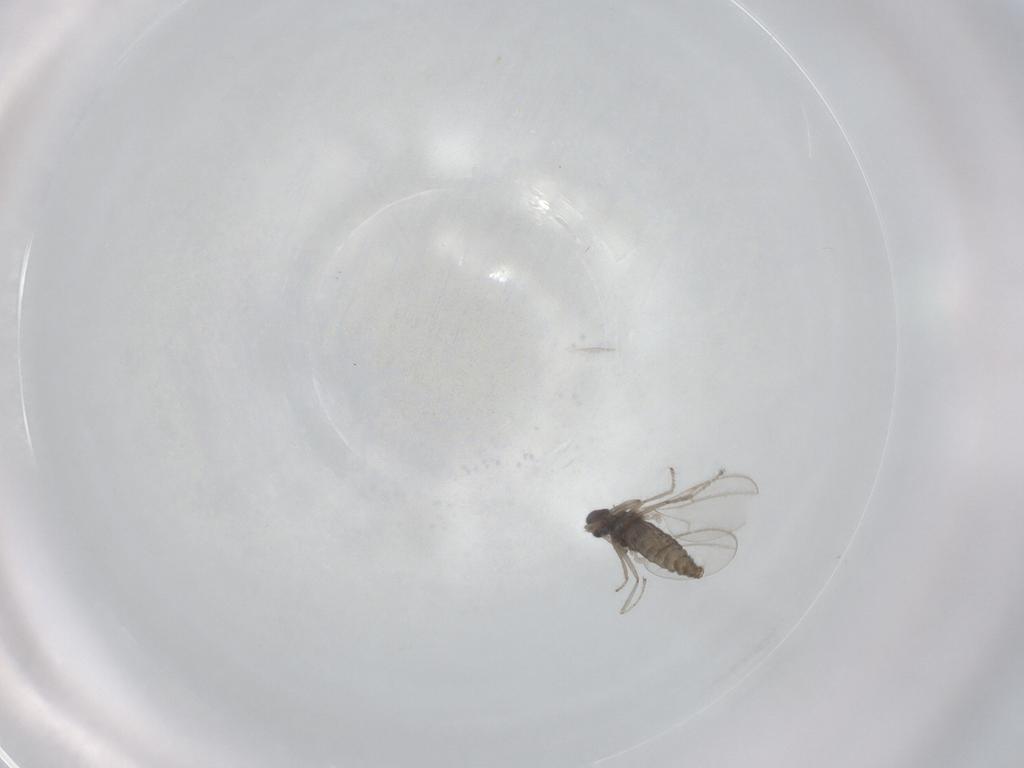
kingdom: Animalia
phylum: Arthropoda
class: Insecta
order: Diptera
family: Cecidomyiidae
